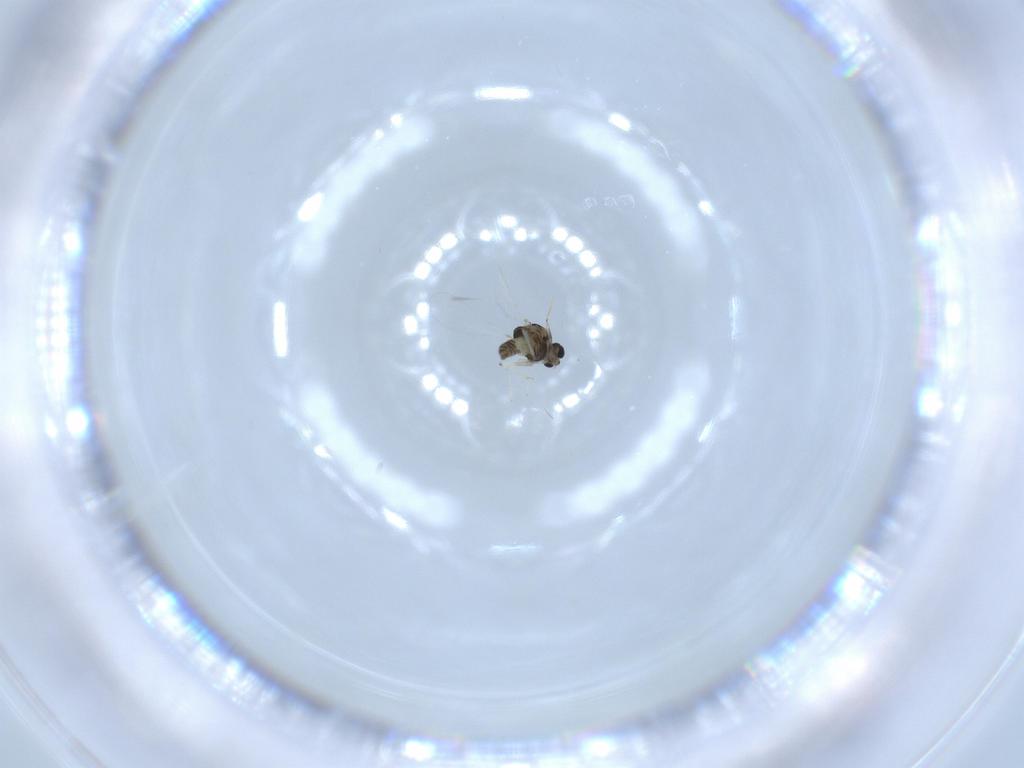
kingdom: Animalia
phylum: Arthropoda
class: Insecta
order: Diptera
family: Chironomidae
